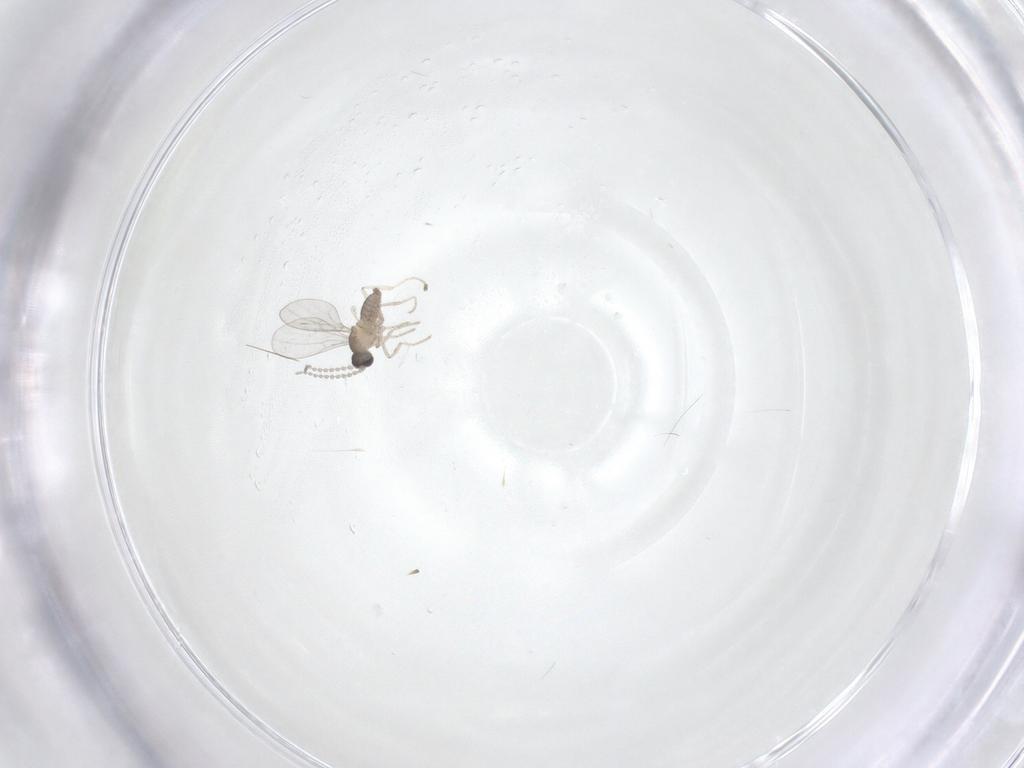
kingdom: Animalia
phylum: Arthropoda
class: Insecta
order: Diptera
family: Cecidomyiidae
